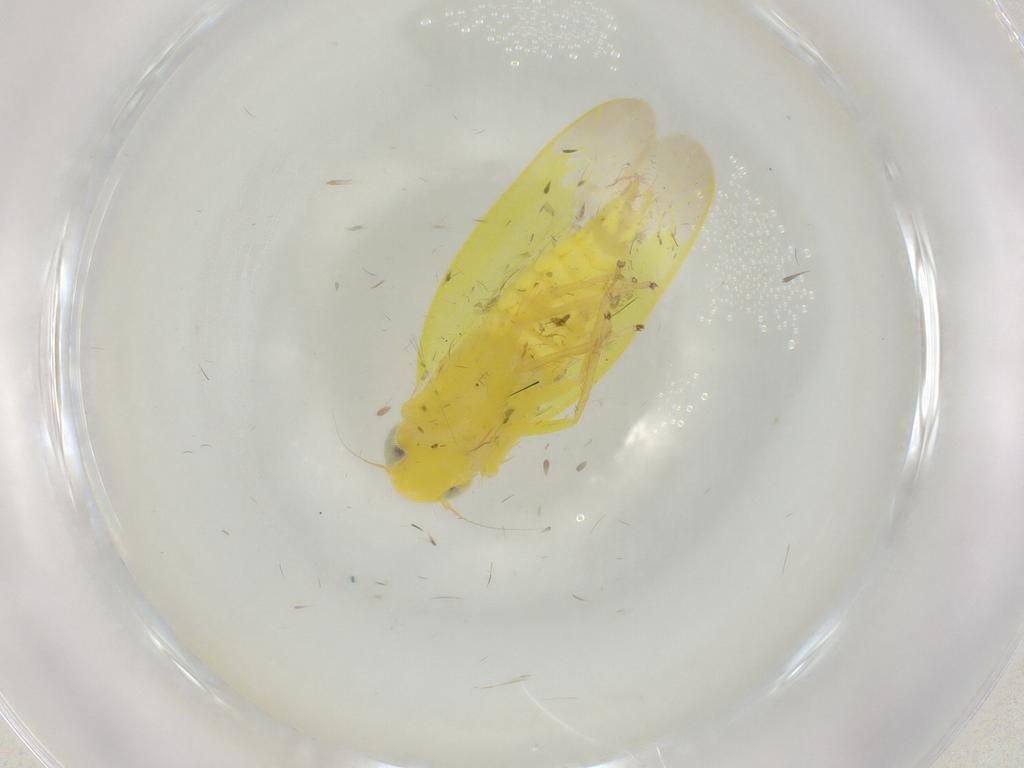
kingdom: Animalia
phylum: Arthropoda
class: Insecta
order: Hemiptera
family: Cicadellidae
